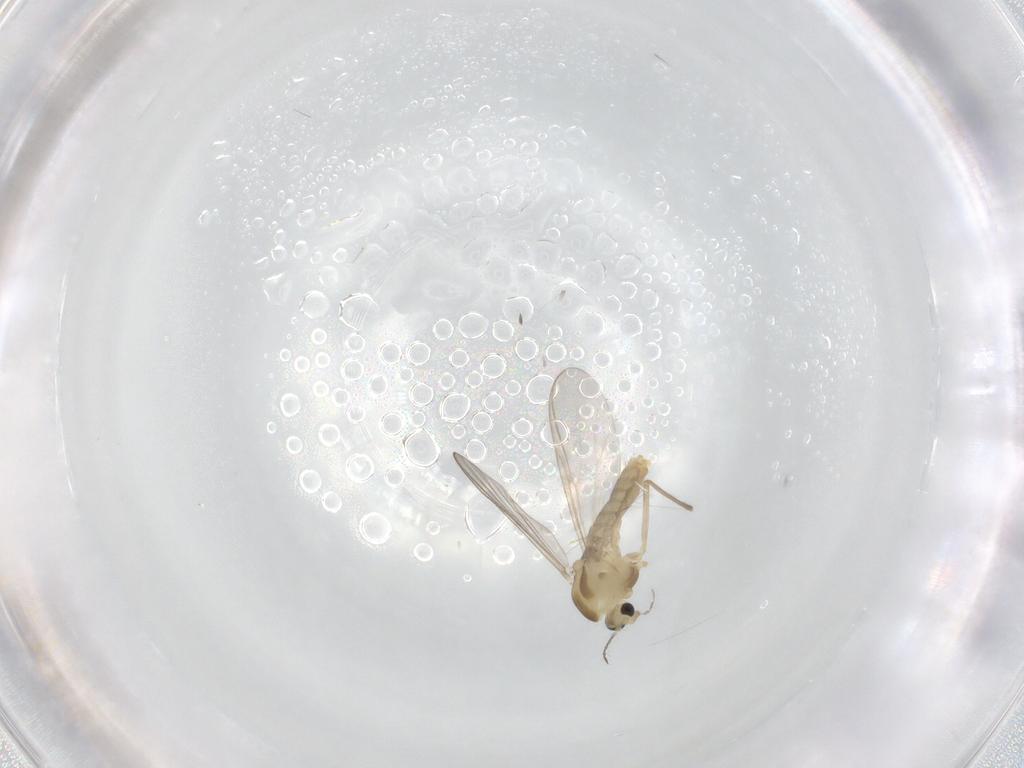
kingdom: Animalia
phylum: Arthropoda
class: Insecta
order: Diptera
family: Chironomidae
